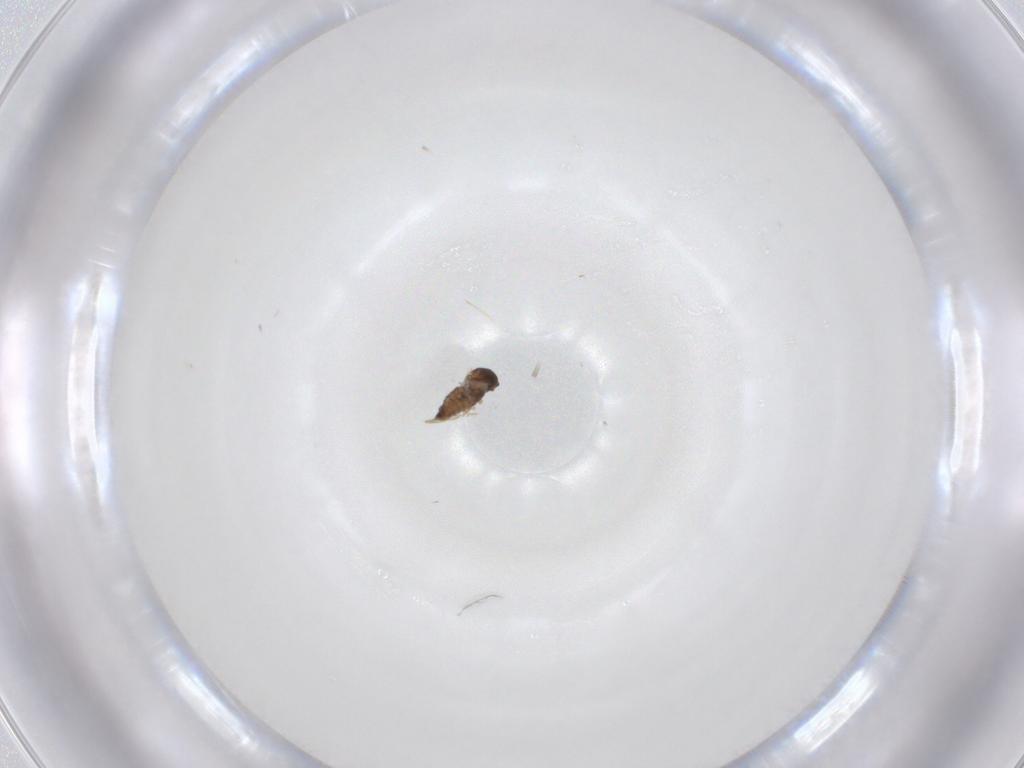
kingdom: Animalia
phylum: Arthropoda
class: Insecta
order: Diptera
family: Cecidomyiidae
